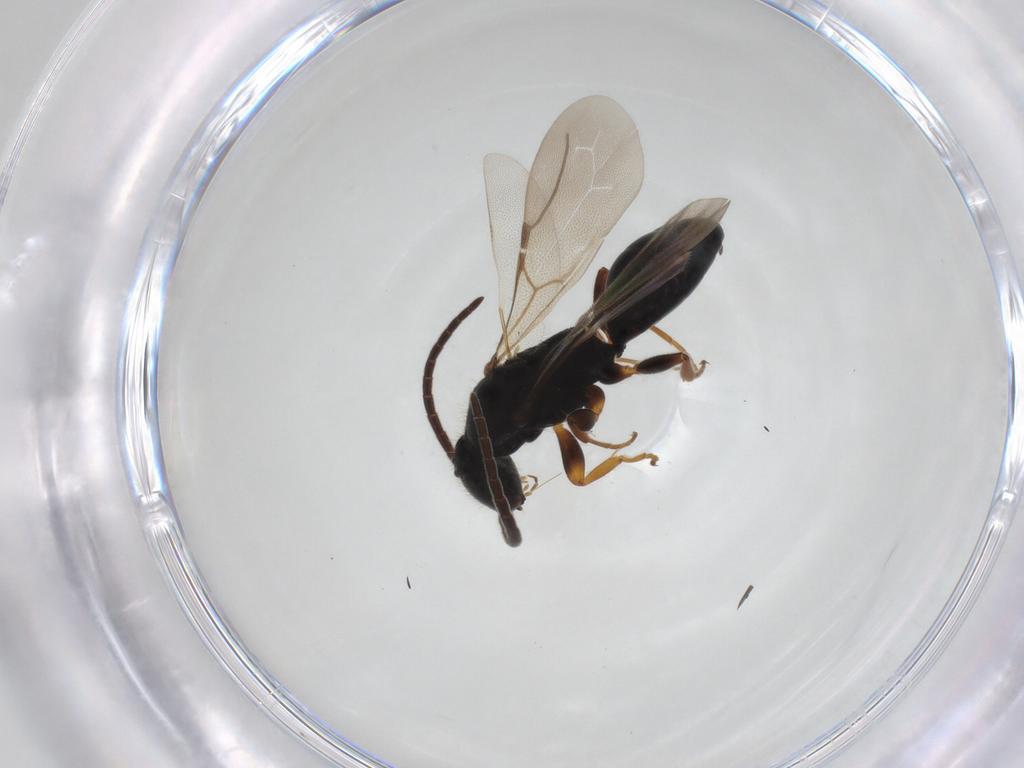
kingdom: Animalia
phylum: Arthropoda
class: Insecta
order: Hymenoptera
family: Bethylidae
